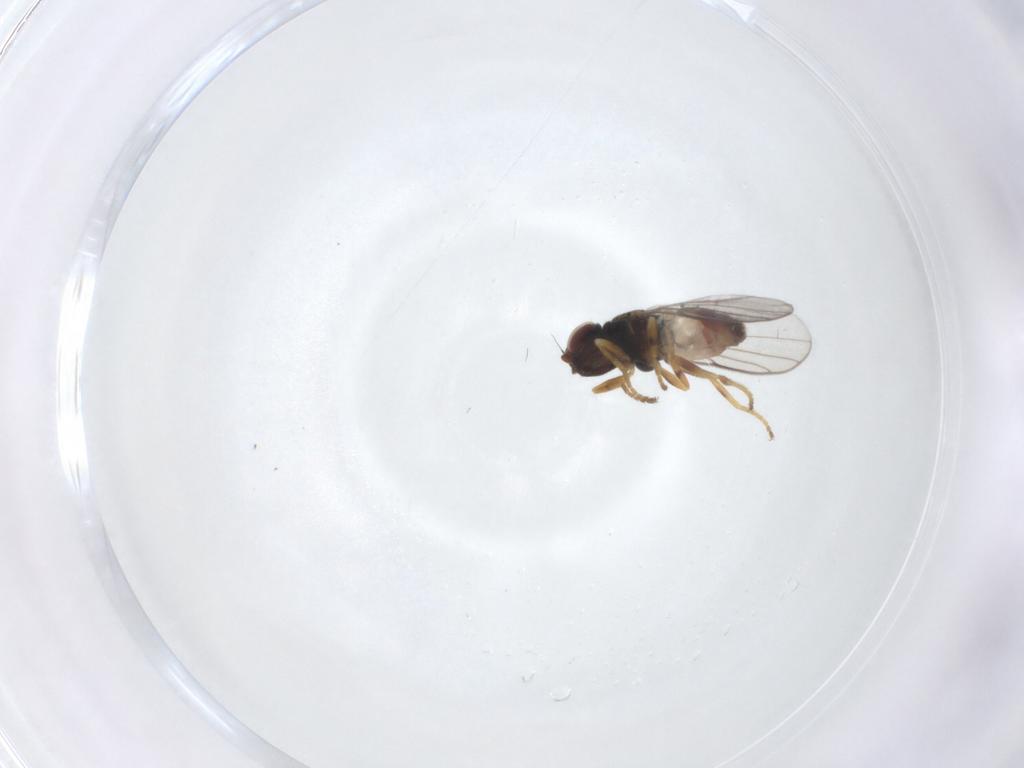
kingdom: Animalia
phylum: Arthropoda
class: Insecta
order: Diptera
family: Chloropidae
